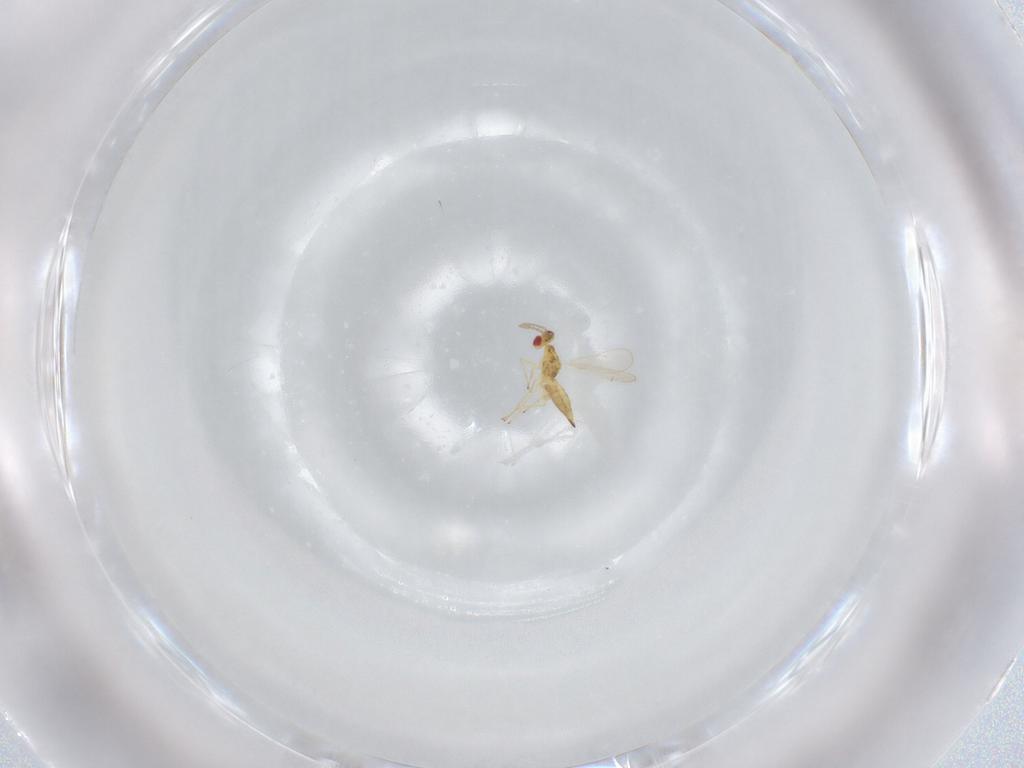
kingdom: Animalia
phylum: Arthropoda
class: Insecta
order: Hymenoptera
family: Eulophidae
